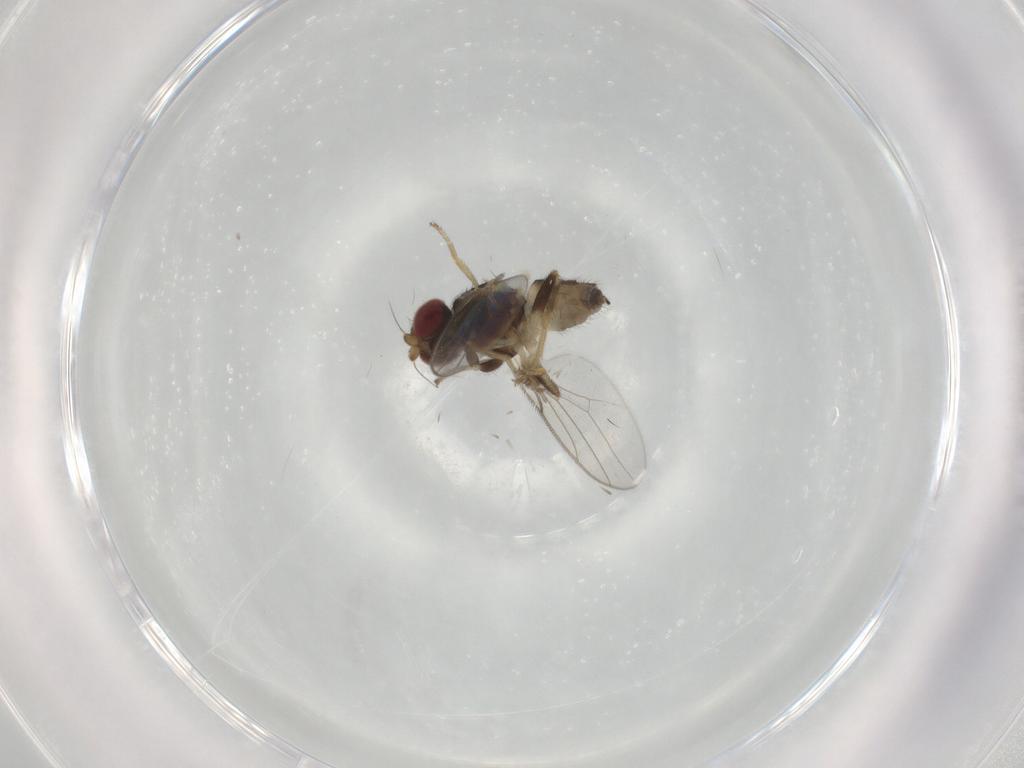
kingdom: Animalia
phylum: Arthropoda
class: Insecta
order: Diptera
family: Chloropidae
